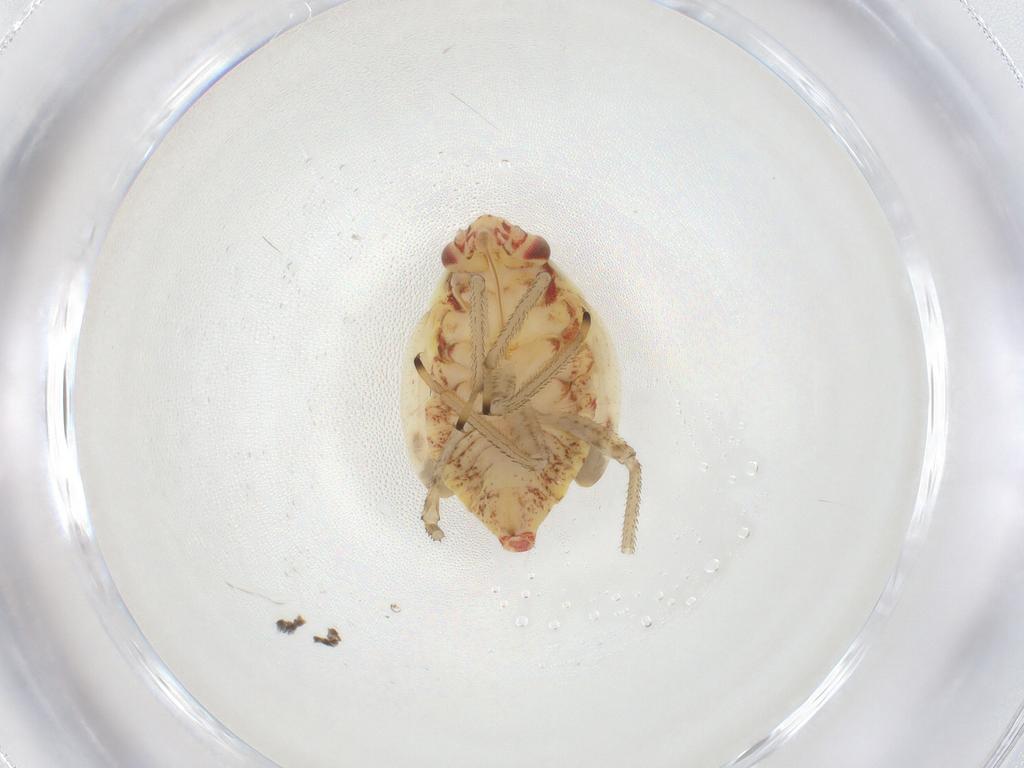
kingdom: Animalia
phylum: Arthropoda
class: Insecta
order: Hemiptera
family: Miridae
